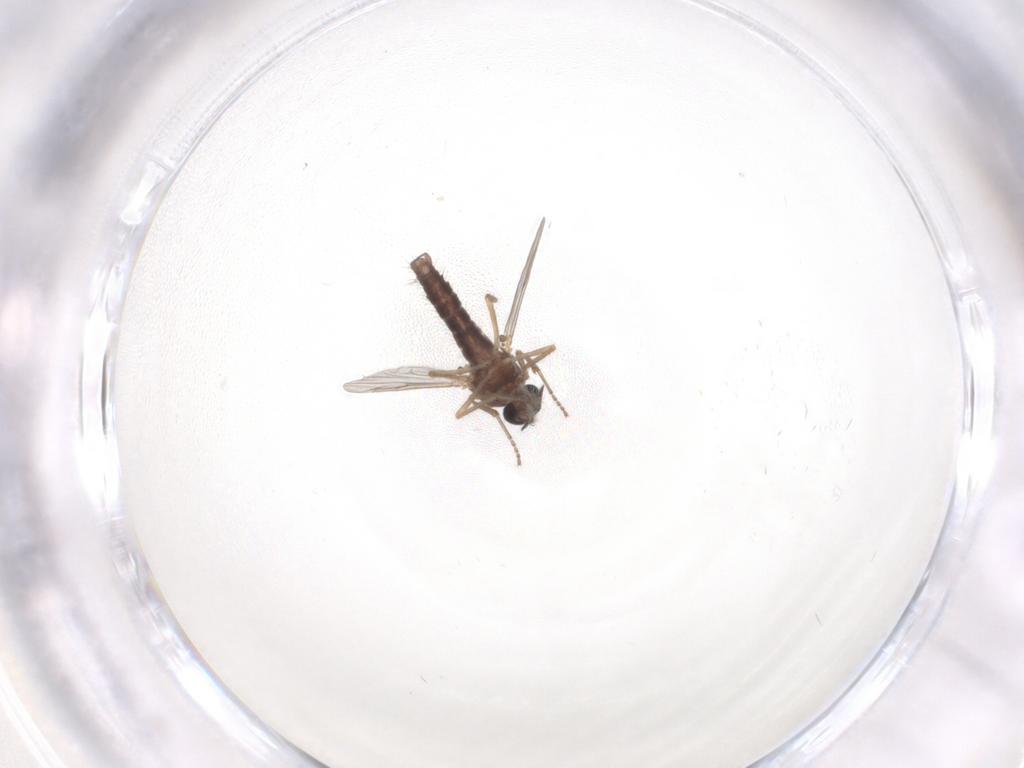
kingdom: Animalia
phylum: Arthropoda
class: Insecta
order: Diptera
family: Ceratopogonidae
